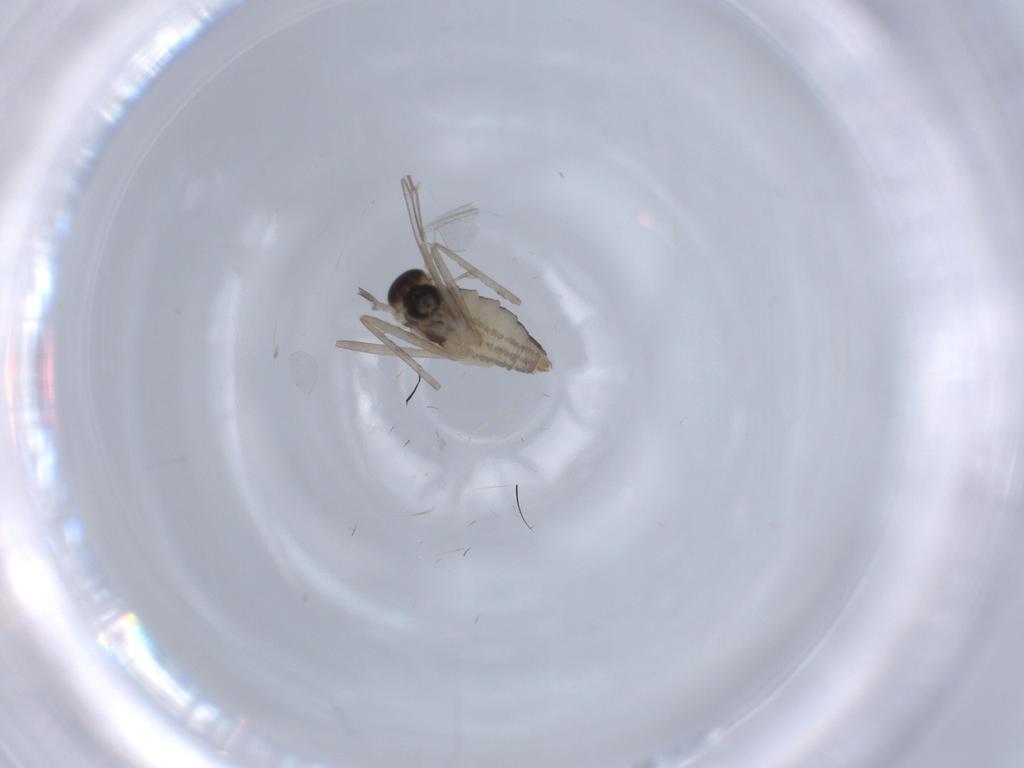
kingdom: Animalia
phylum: Arthropoda
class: Insecta
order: Diptera
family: Cecidomyiidae
